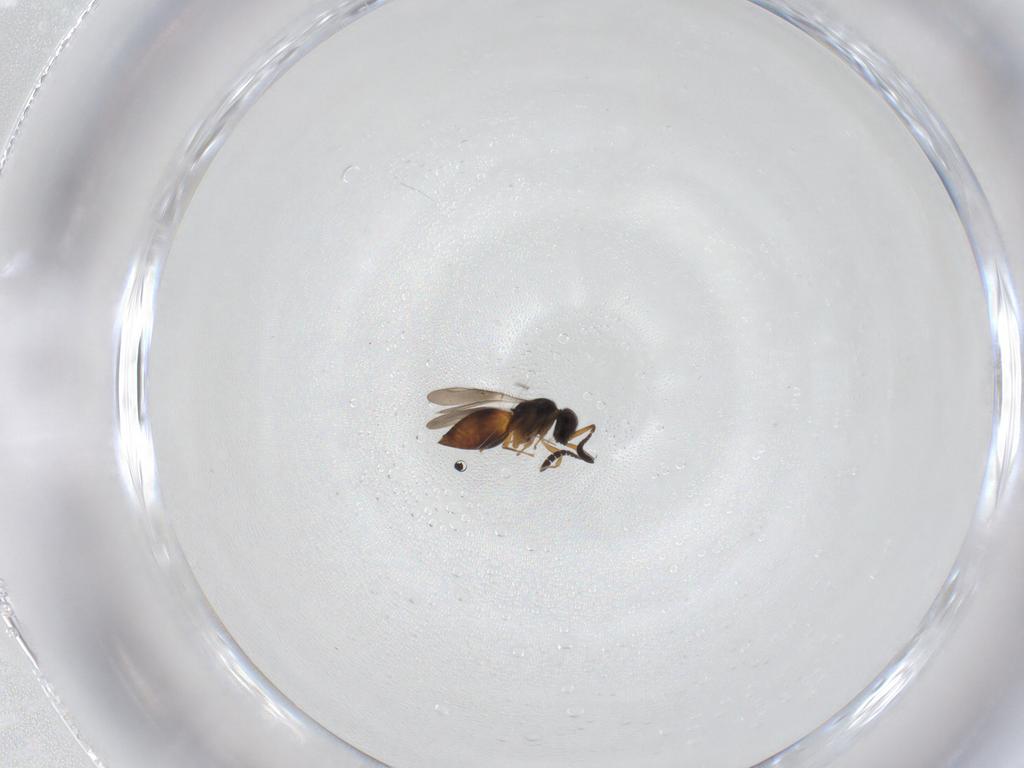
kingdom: Animalia
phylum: Arthropoda
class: Insecta
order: Hymenoptera
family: Ceraphronidae
